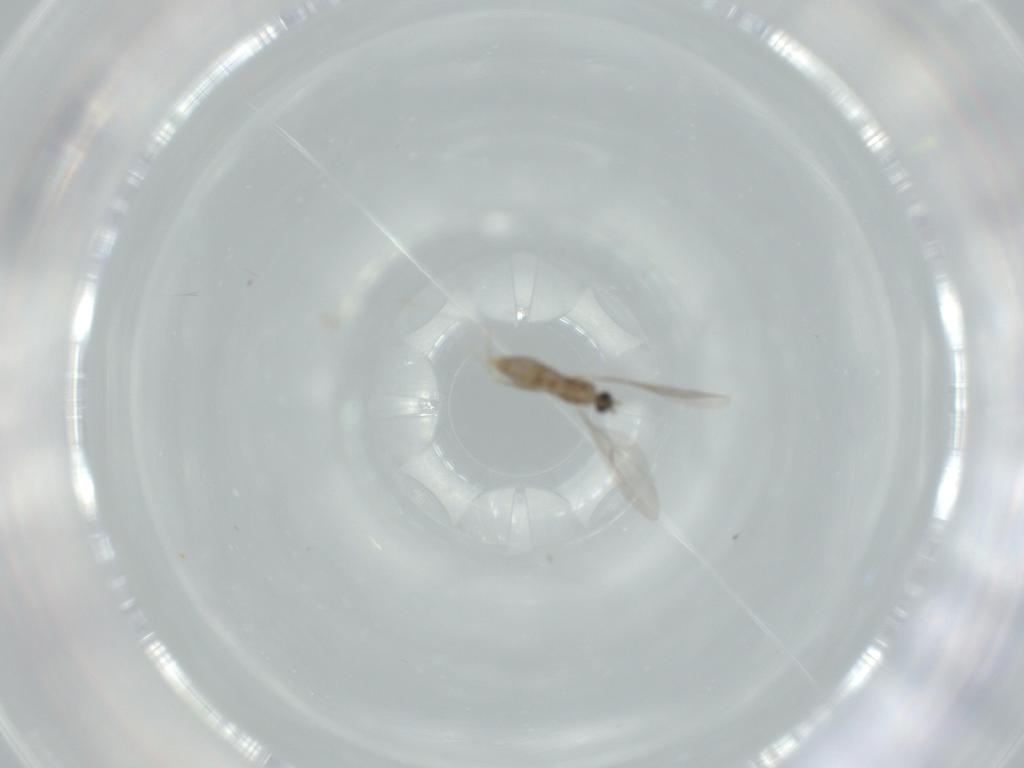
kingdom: Animalia
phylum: Arthropoda
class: Insecta
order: Diptera
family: Cecidomyiidae
